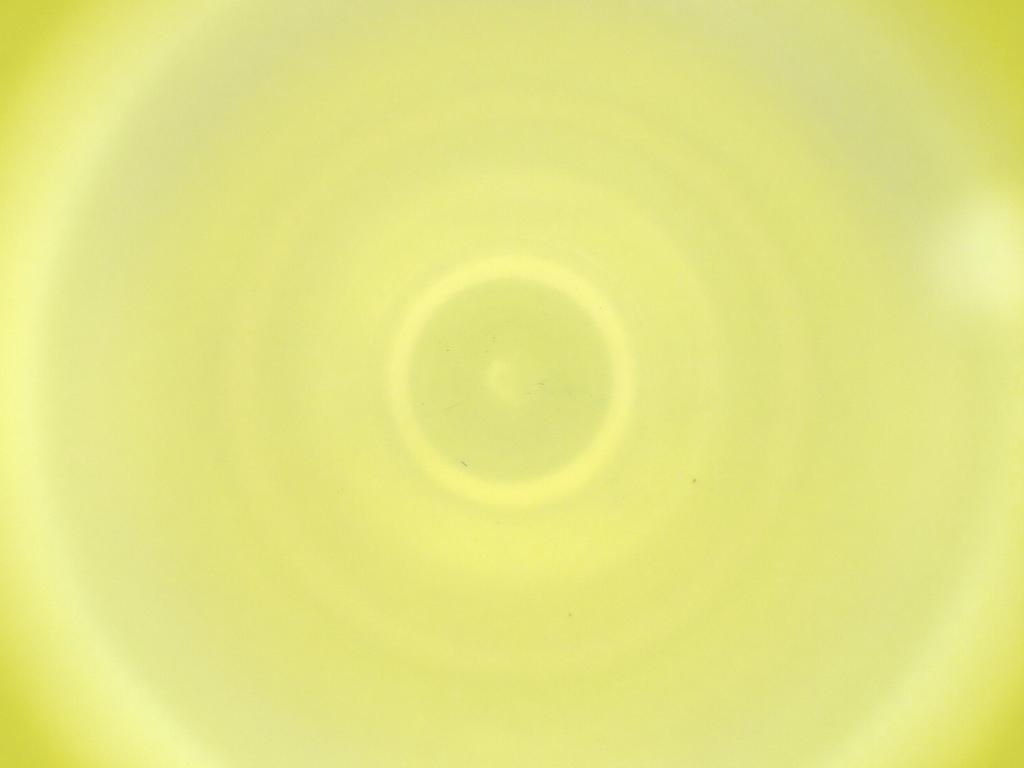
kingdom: Animalia
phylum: Arthropoda
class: Insecta
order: Diptera
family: Cecidomyiidae
